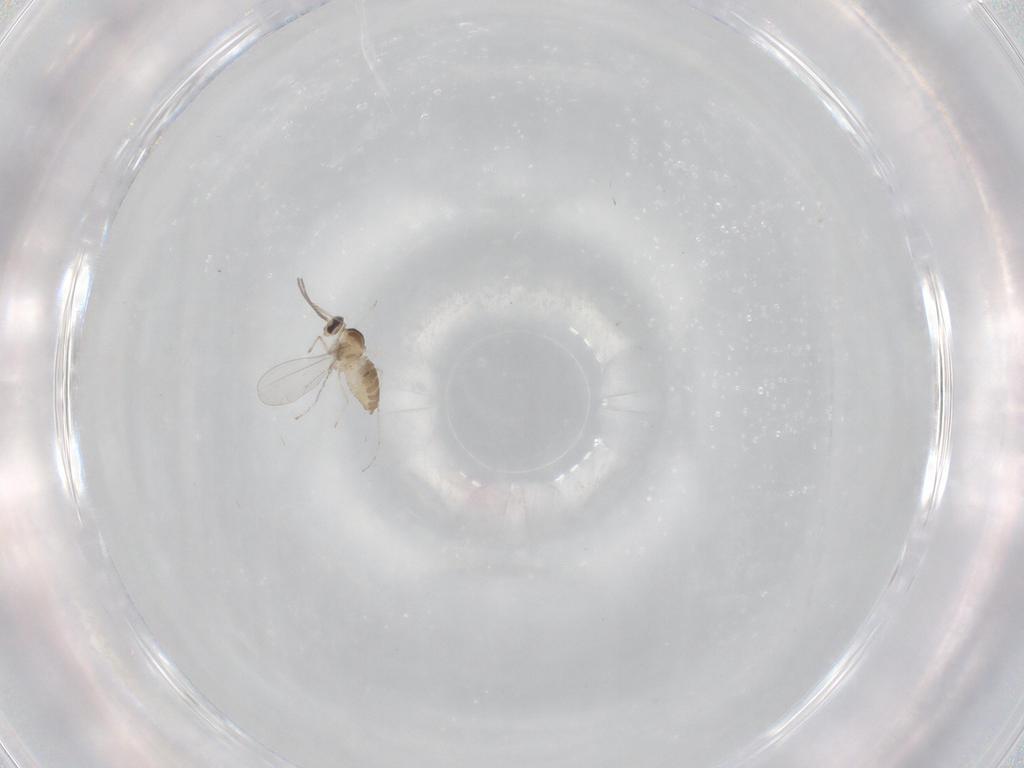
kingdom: Animalia
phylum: Arthropoda
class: Insecta
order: Diptera
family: Cecidomyiidae
